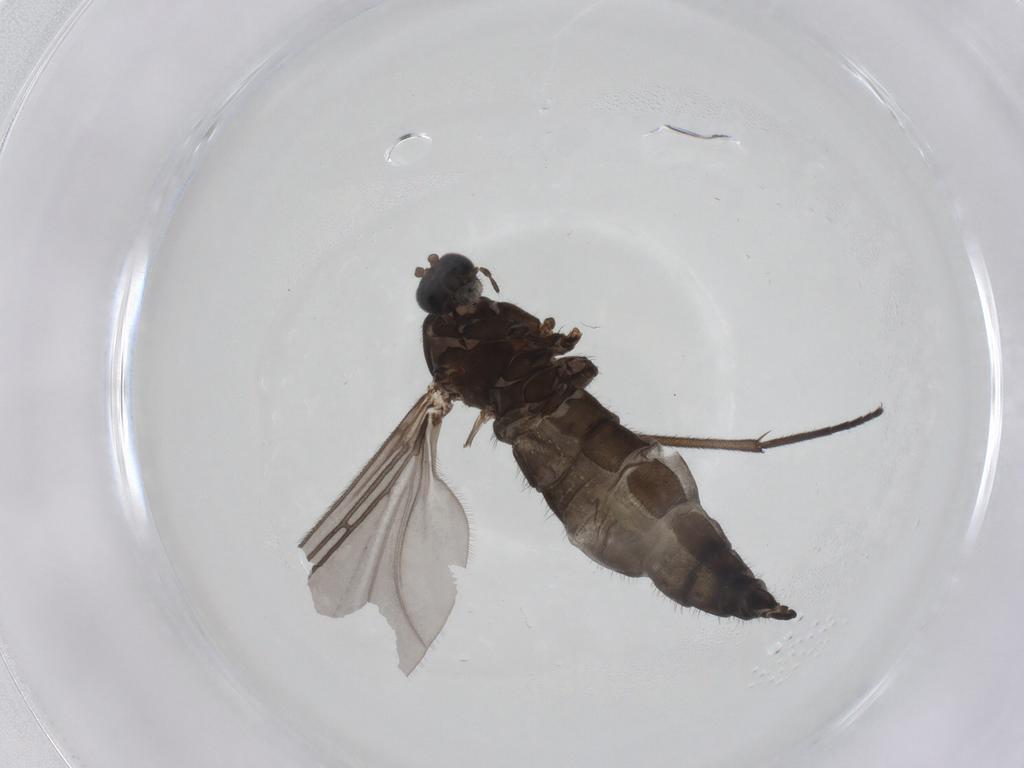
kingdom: Animalia
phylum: Arthropoda
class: Insecta
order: Diptera
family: Sciaridae
